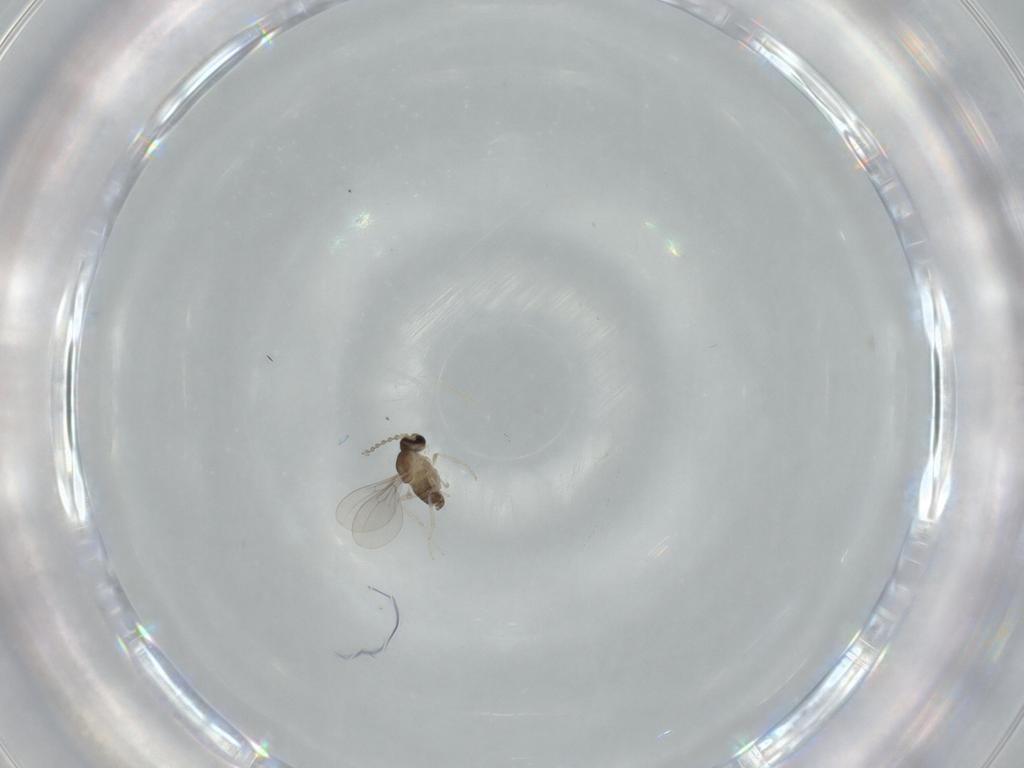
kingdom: Animalia
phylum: Arthropoda
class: Insecta
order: Diptera
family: Cecidomyiidae
